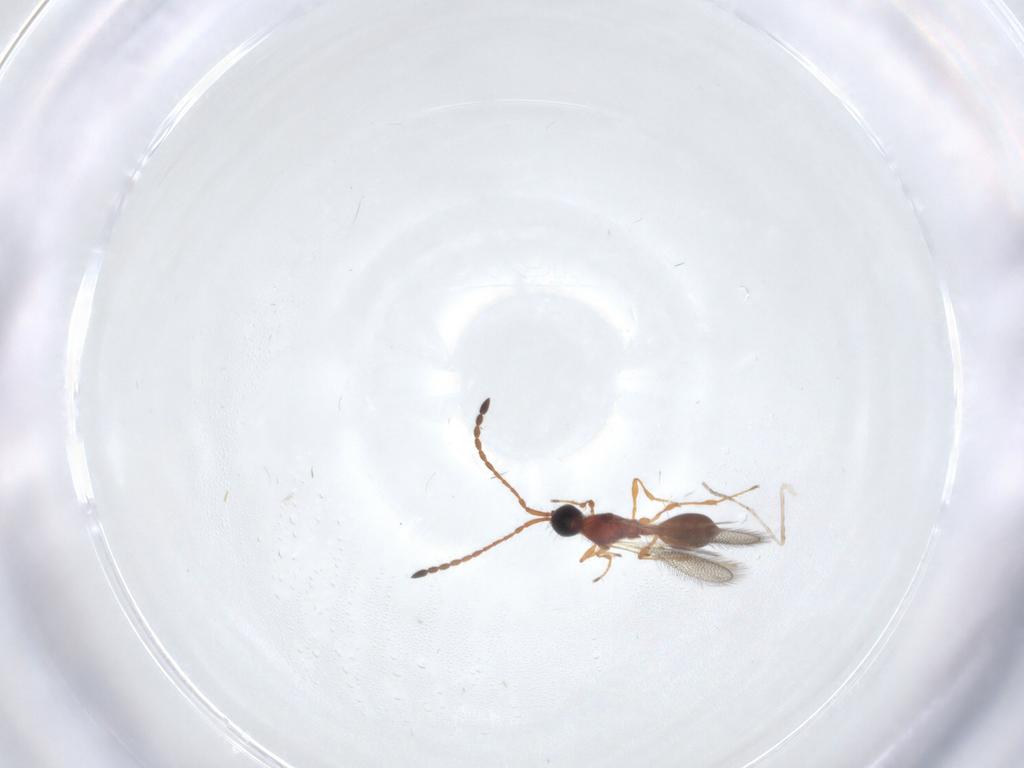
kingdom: Animalia
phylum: Arthropoda
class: Insecta
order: Hymenoptera
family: Diapriidae
